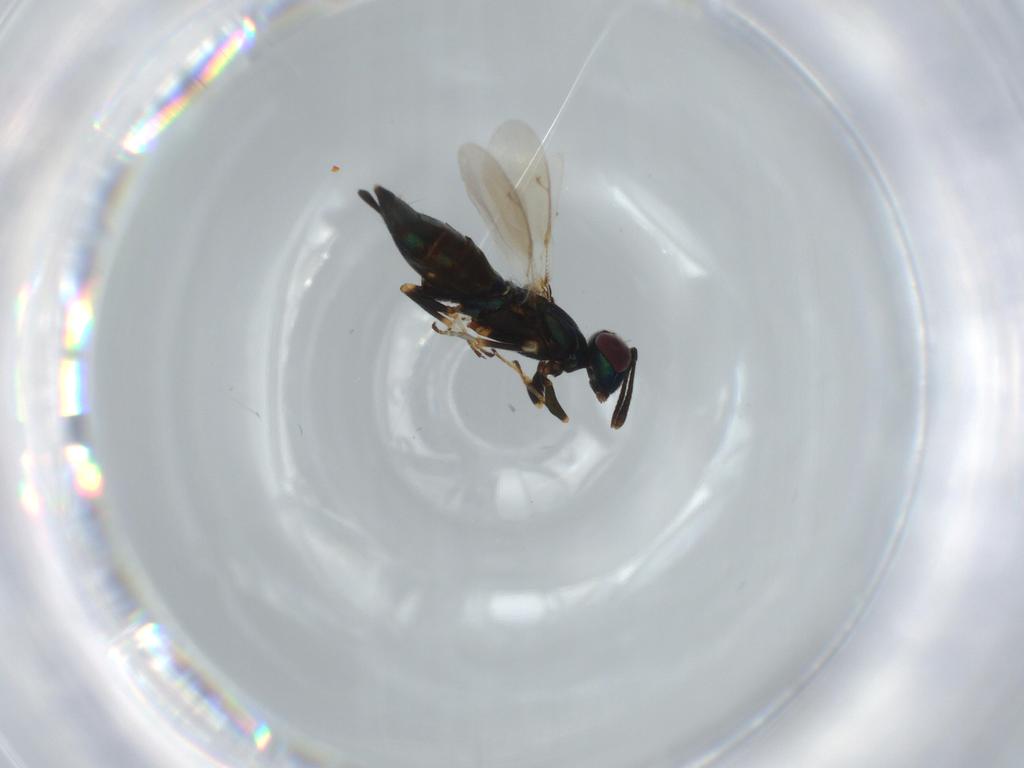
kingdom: Animalia
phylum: Arthropoda
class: Insecta
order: Hymenoptera
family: Eupelmidae
